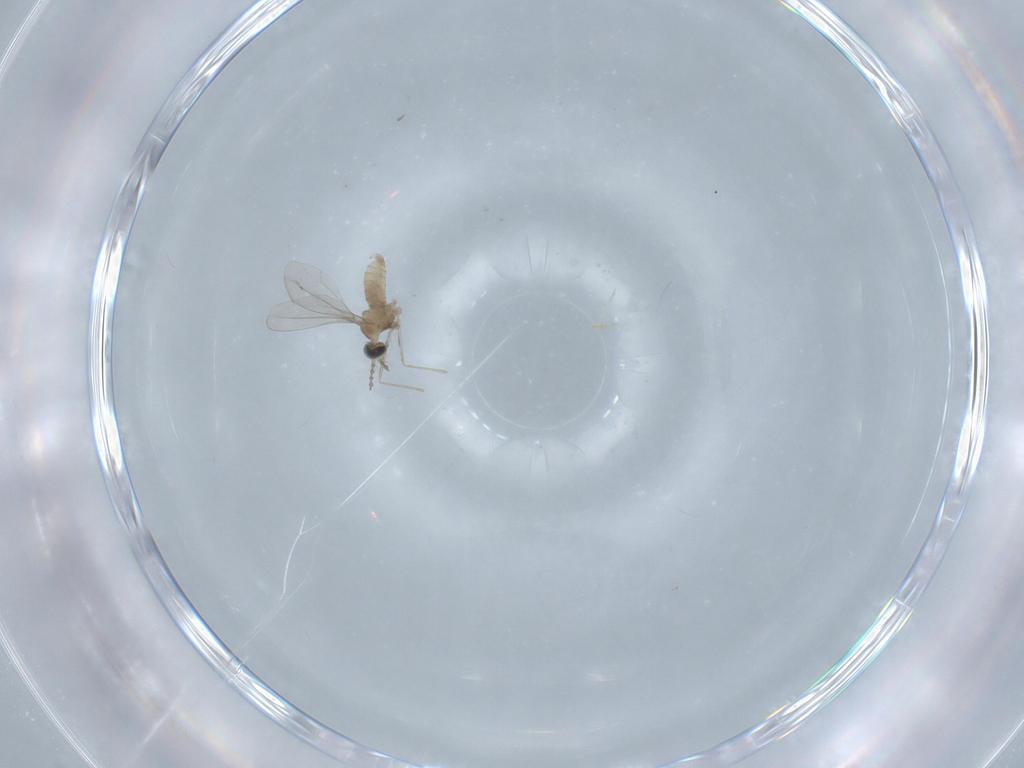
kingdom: Animalia
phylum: Arthropoda
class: Insecta
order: Diptera
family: Cecidomyiidae
